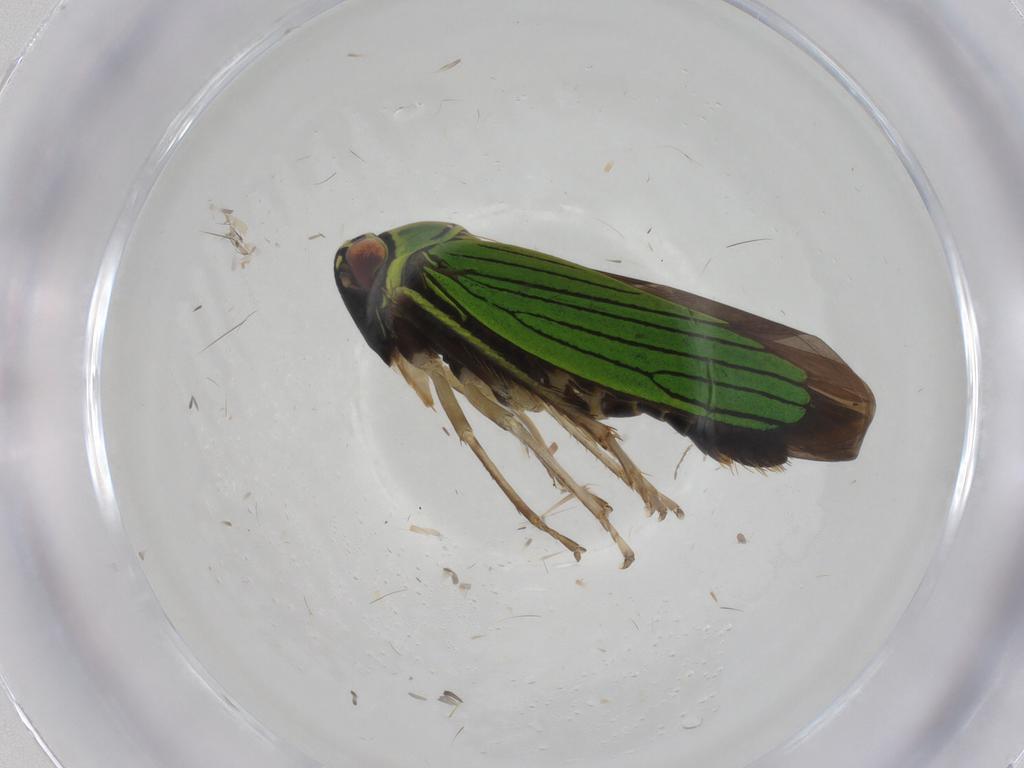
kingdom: Animalia
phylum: Arthropoda
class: Insecta
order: Hemiptera
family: Cicadellidae
